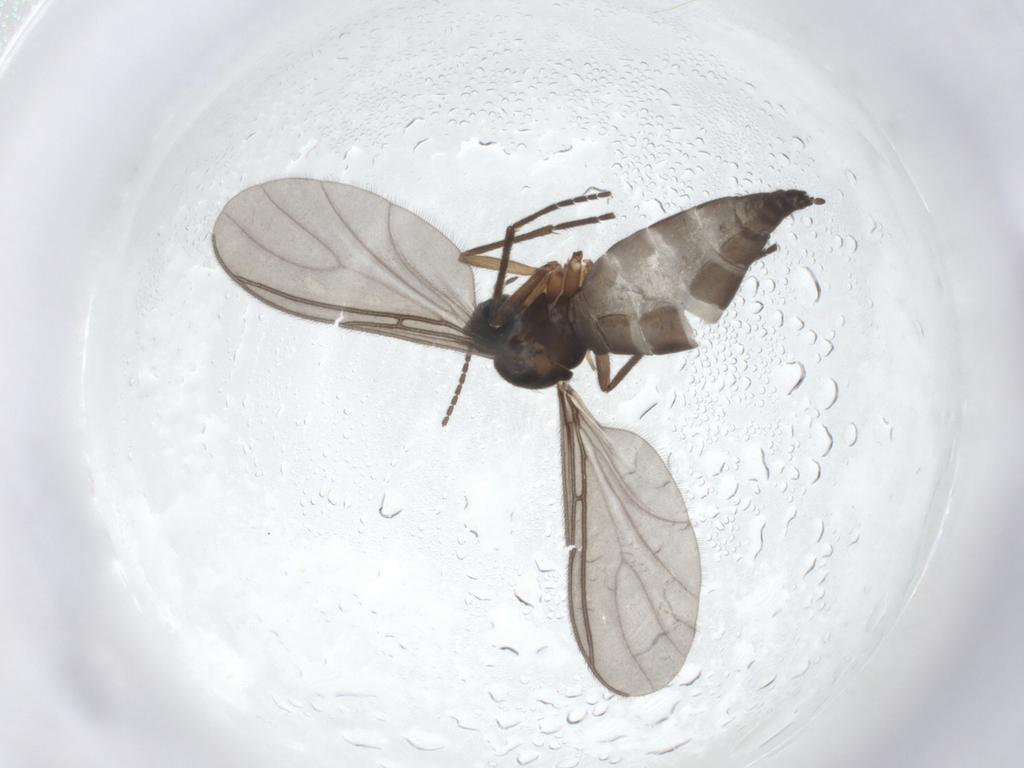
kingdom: Animalia
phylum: Arthropoda
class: Insecta
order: Diptera
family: Sciaridae
